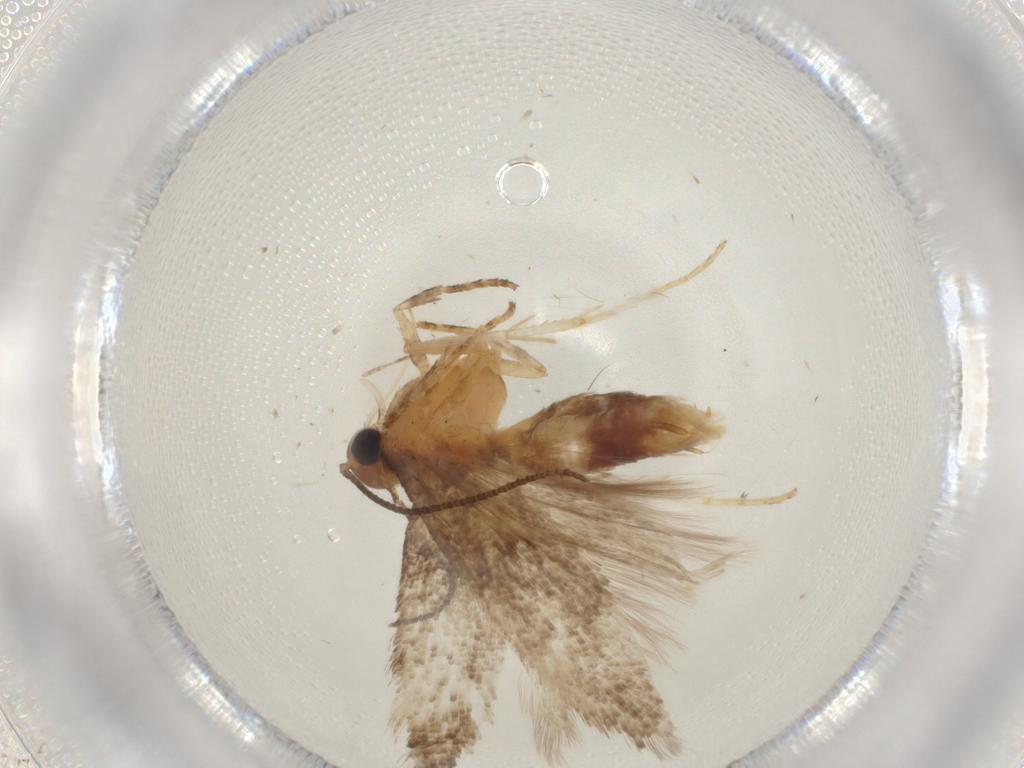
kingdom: Animalia
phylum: Arthropoda
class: Insecta
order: Lepidoptera
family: Gelechiidae
